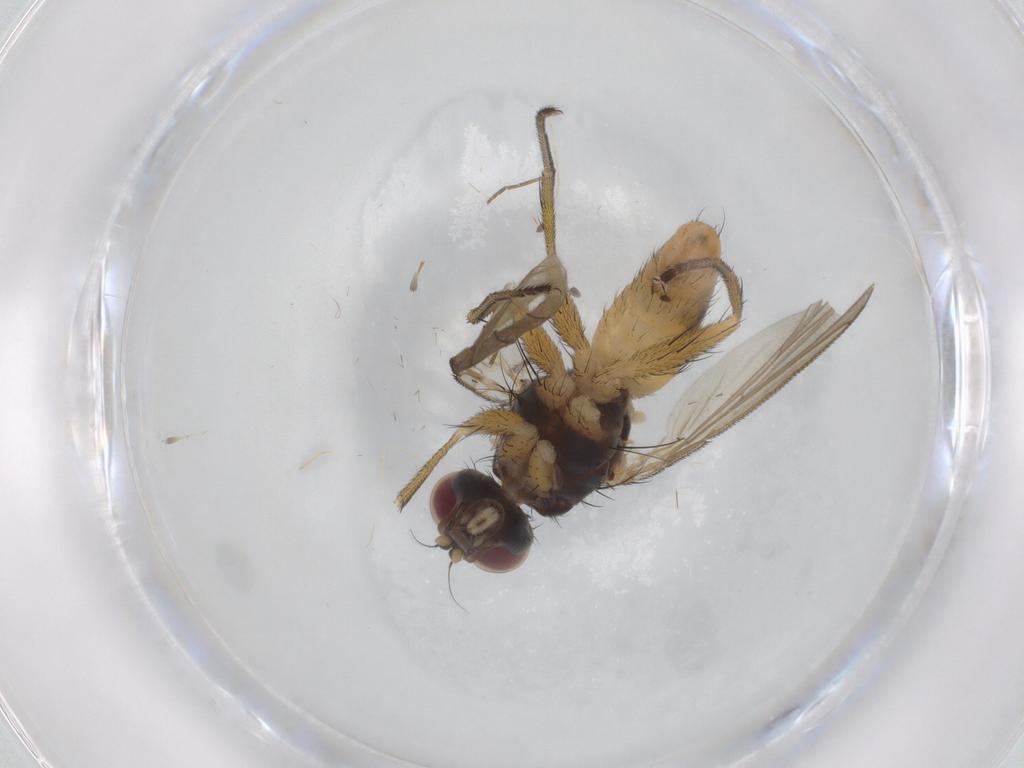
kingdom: Animalia
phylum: Arthropoda
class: Insecta
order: Diptera
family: Muscidae
